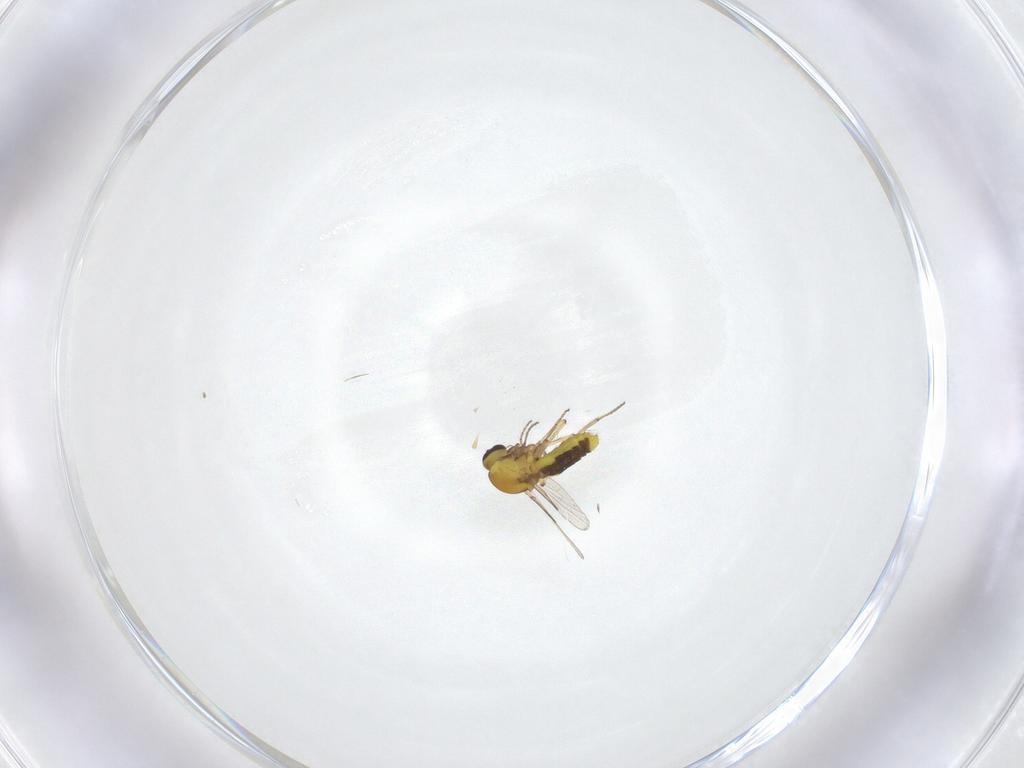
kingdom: Animalia
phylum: Arthropoda
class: Insecta
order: Diptera
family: Ceratopogonidae
